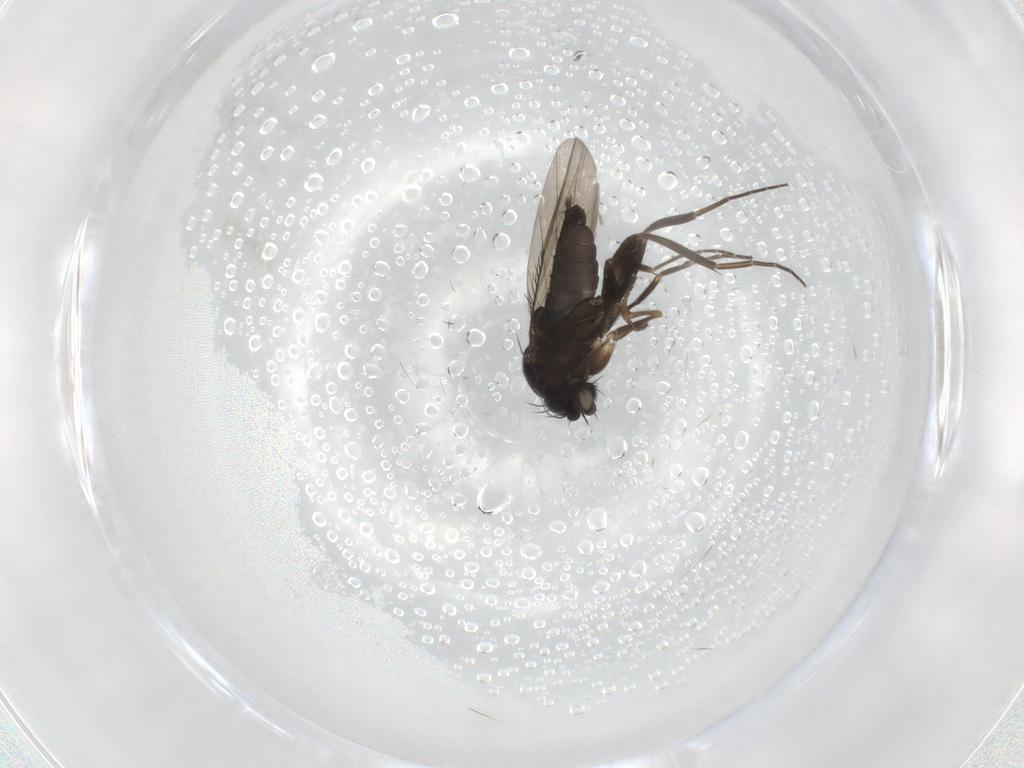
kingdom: Animalia
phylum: Arthropoda
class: Insecta
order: Diptera
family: Phoridae
